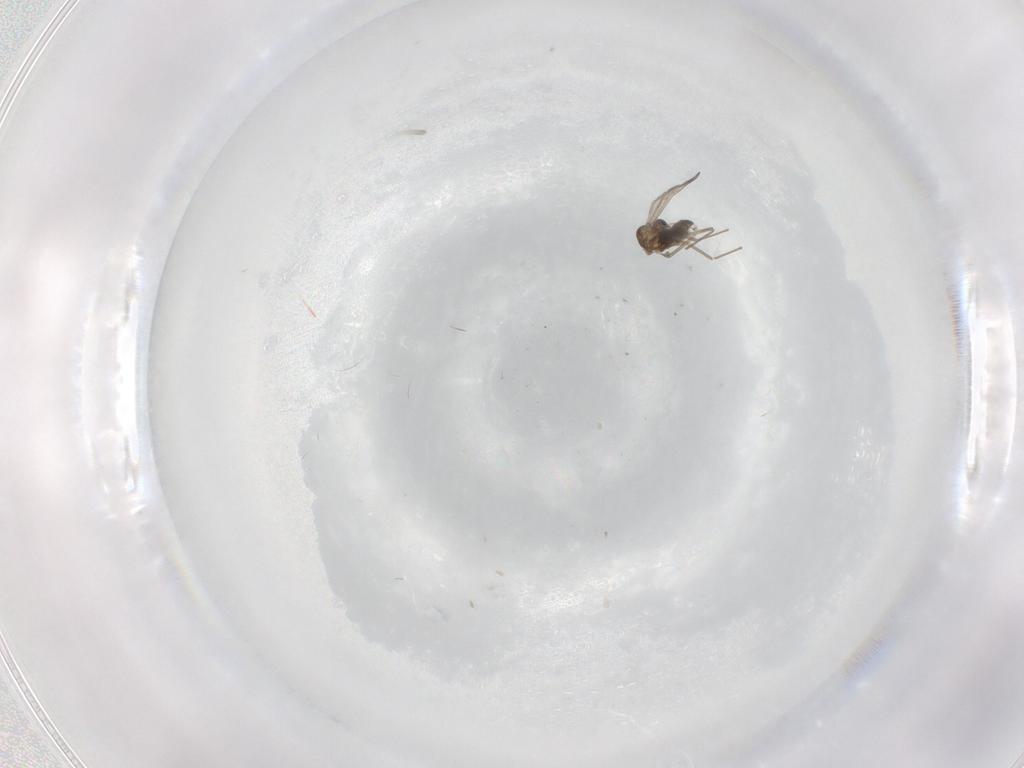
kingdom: Animalia
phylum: Arthropoda
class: Insecta
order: Diptera
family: Chironomidae
